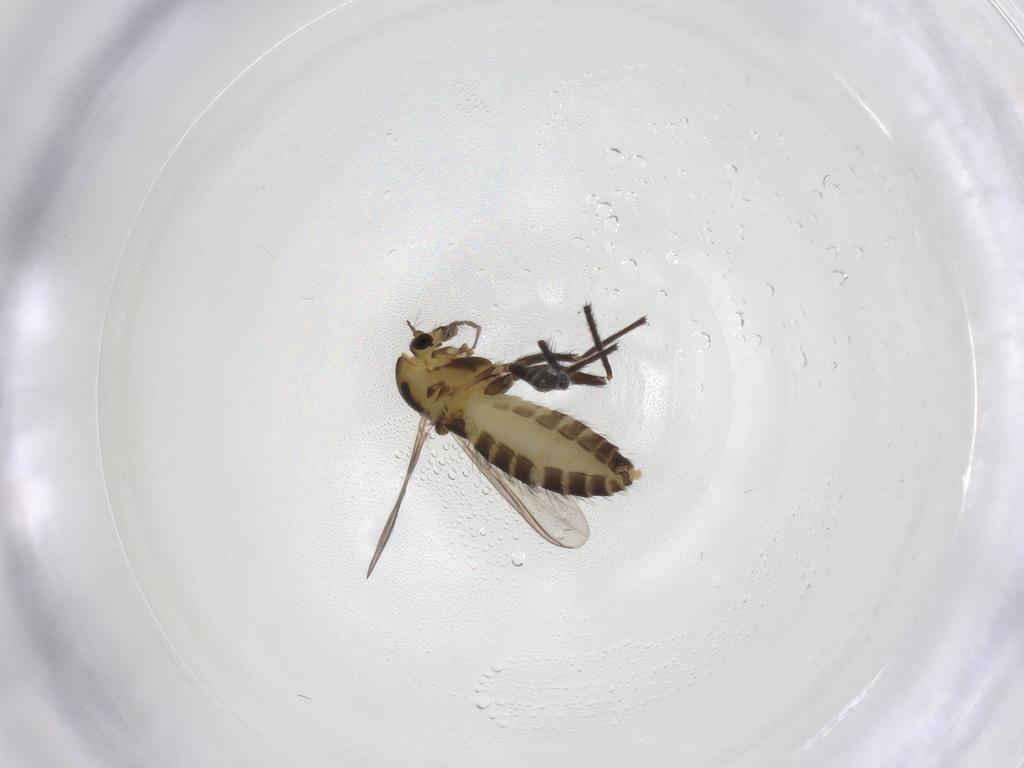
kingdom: Animalia
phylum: Arthropoda
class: Insecta
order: Diptera
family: Chironomidae
